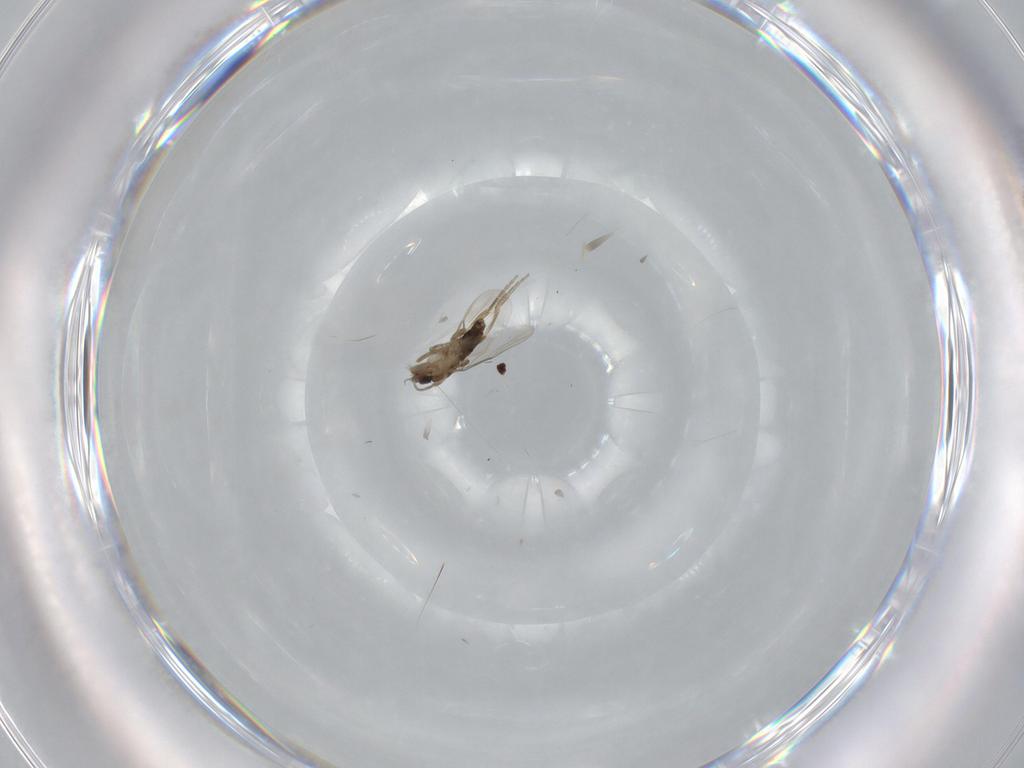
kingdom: Animalia
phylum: Arthropoda
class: Insecta
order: Diptera
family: Phoridae
